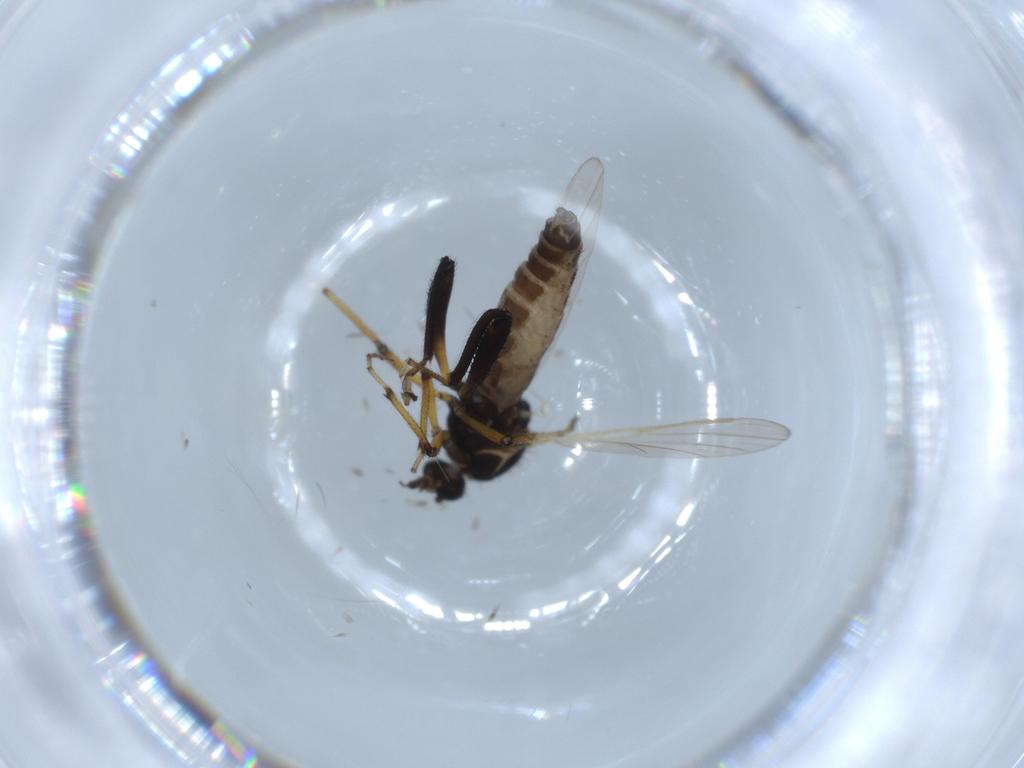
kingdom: Animalia
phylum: Arthropoda
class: Insecta
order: Diptera
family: Ceratopogonidae
